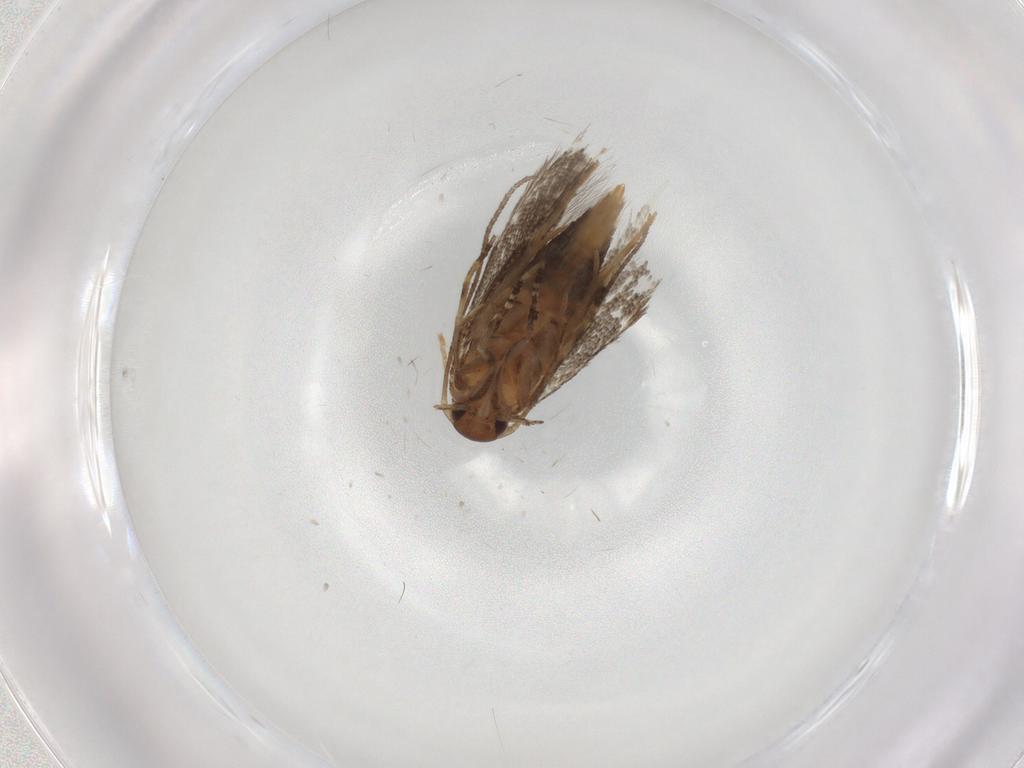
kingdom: Animalia
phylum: Arthropoda
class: Insecta
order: Lepidoptera
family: Elachistidae
